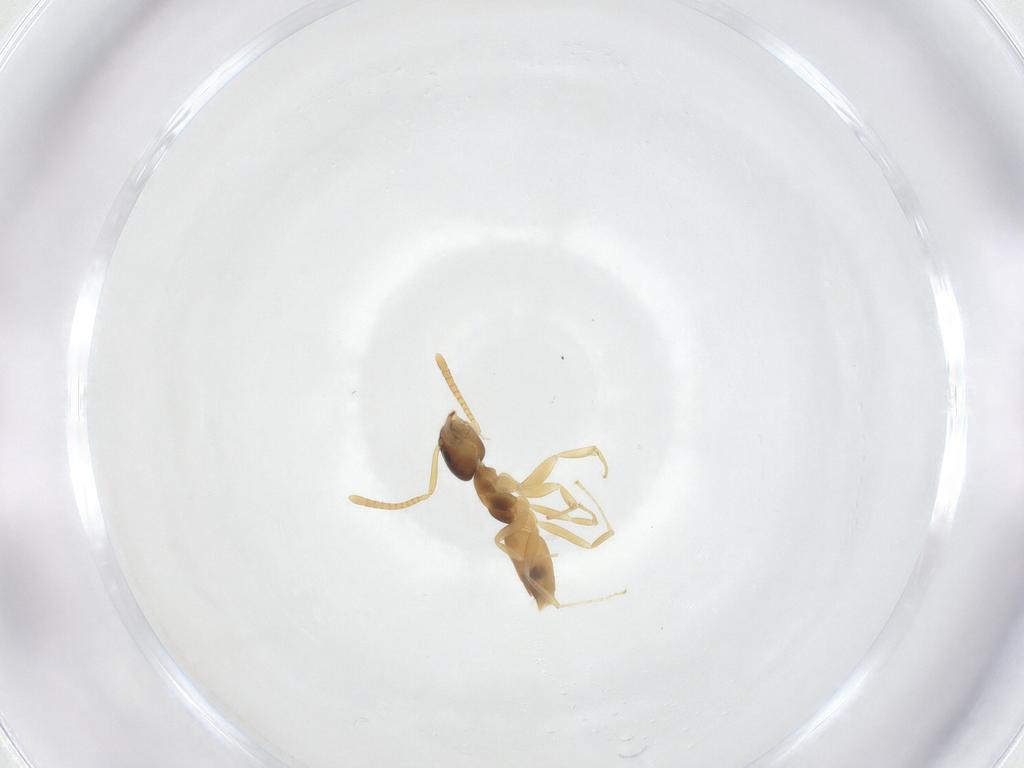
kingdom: Animalia
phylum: Arthropoda
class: Insecta
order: Hymenoptera
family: Formicidae
